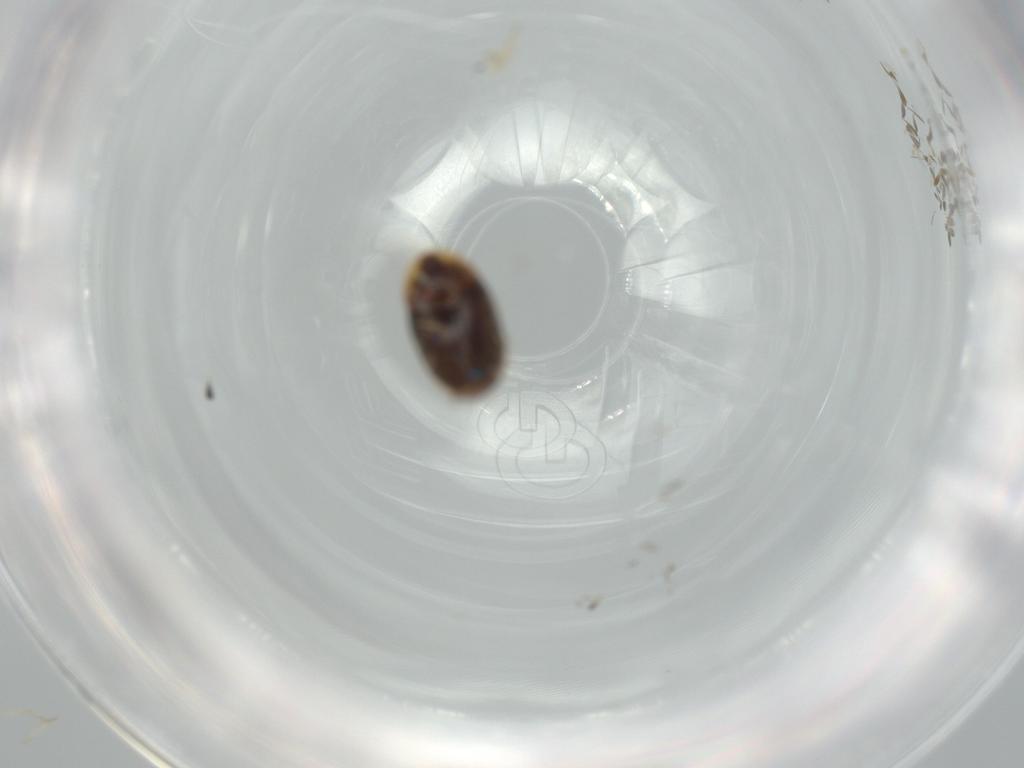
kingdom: Animalia
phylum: Arthropoda
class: Insecta
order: Coleoptera
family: Corylophidae
